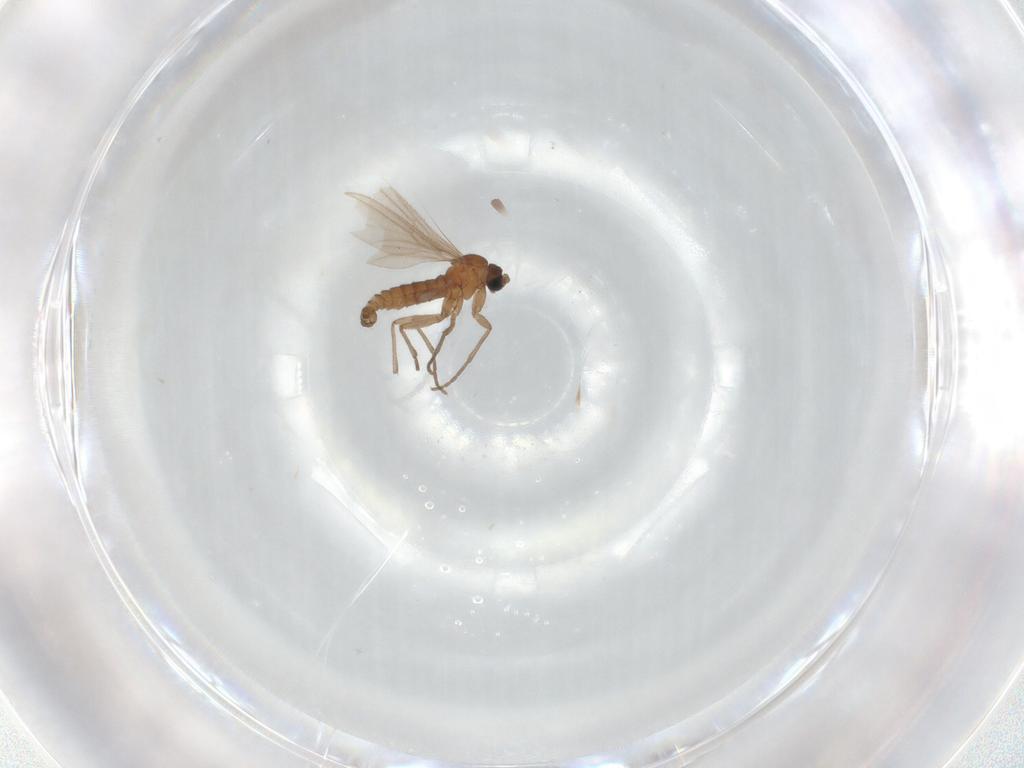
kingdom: Animalia
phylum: Arthropoda
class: Insecta
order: Diptera
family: Sciaridae
